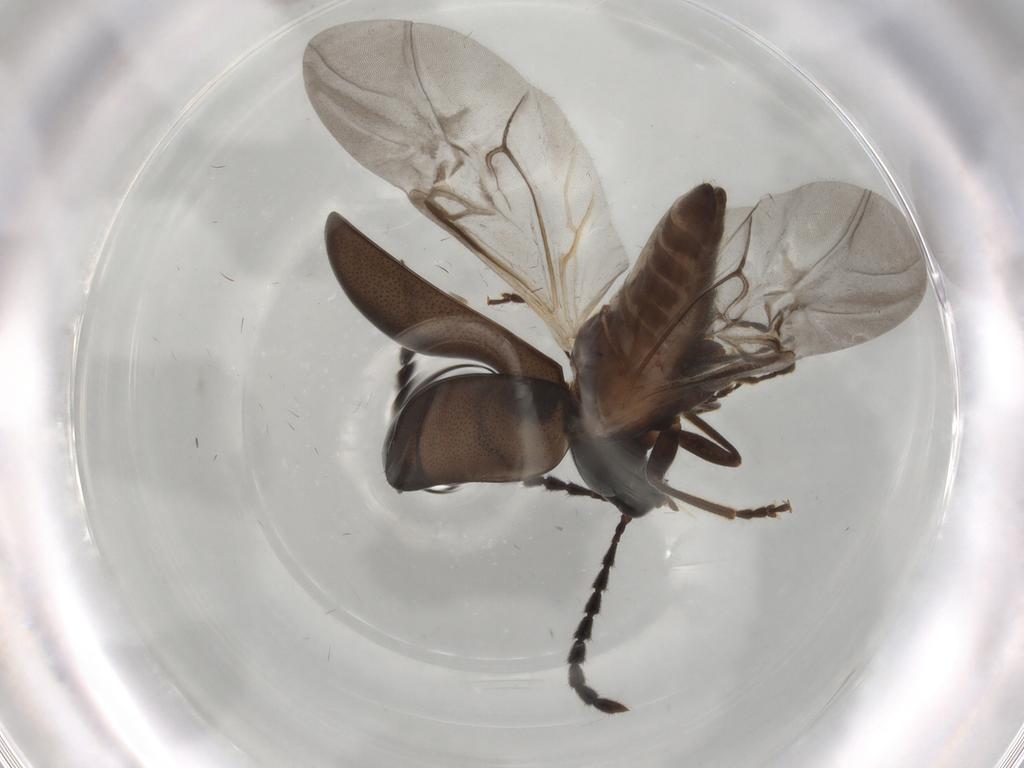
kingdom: Animalia
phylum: Arthropoda
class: Insecta
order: Coleoptera
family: Chrysomelidae
